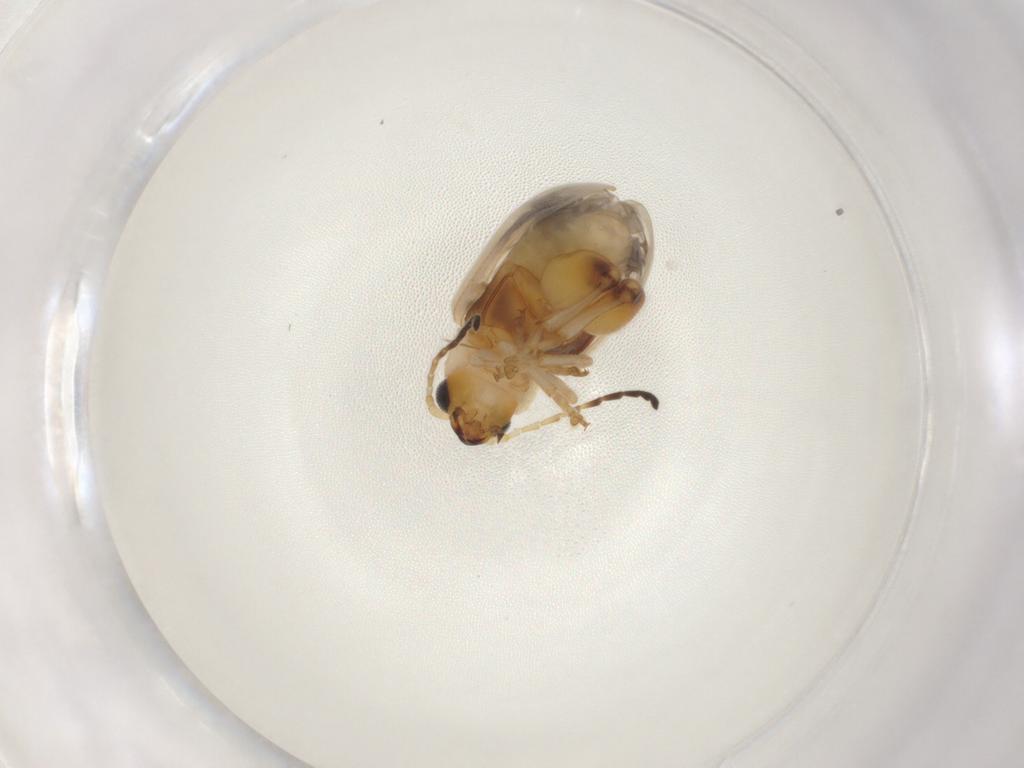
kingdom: Animalia
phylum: Arthropoda
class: Insecta
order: Coleoptera
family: Chrysomelidae
